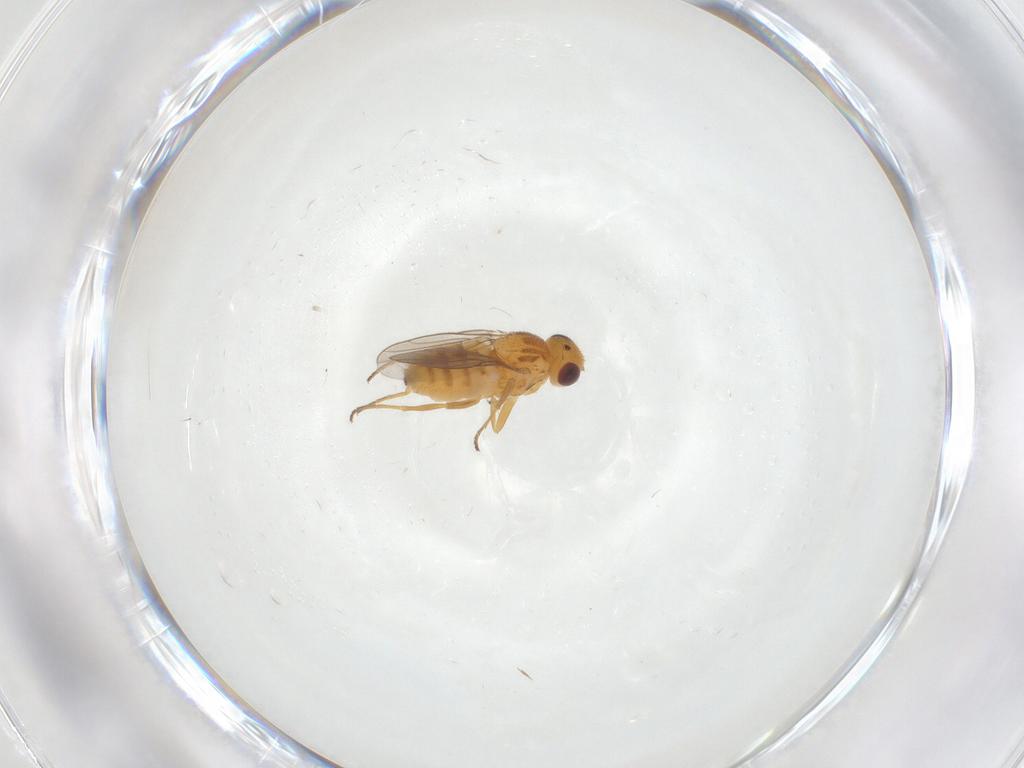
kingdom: Animalia
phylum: Arthropoda
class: Insecta
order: Diptera
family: Chloropidae
